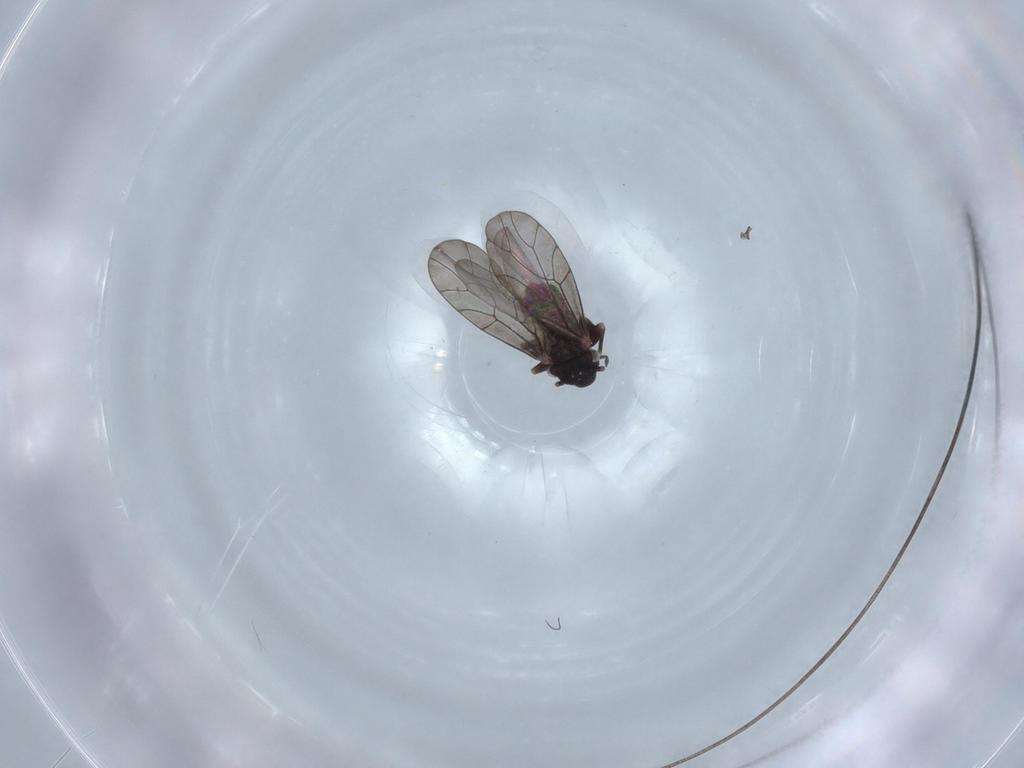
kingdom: Animalia
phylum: Arthropoda
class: Insecta
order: Psocodea
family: Lepidopsocidae
